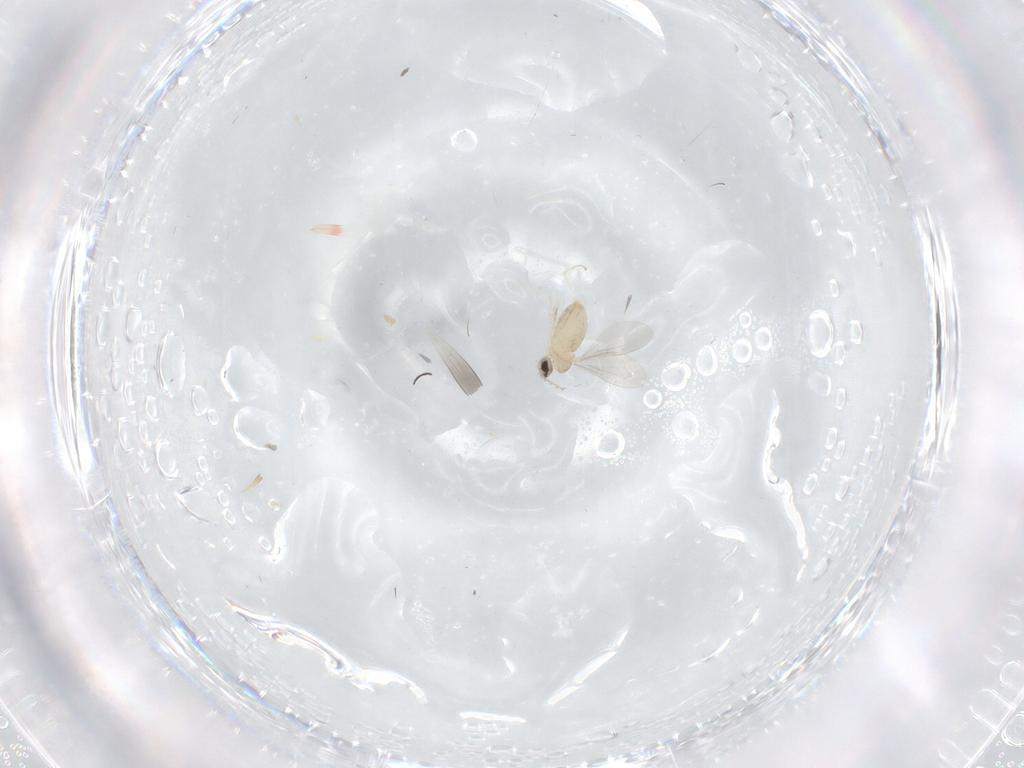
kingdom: Animalia
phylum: Arthropoda
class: Insecta
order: Diptera
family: Cecidomyiidae
